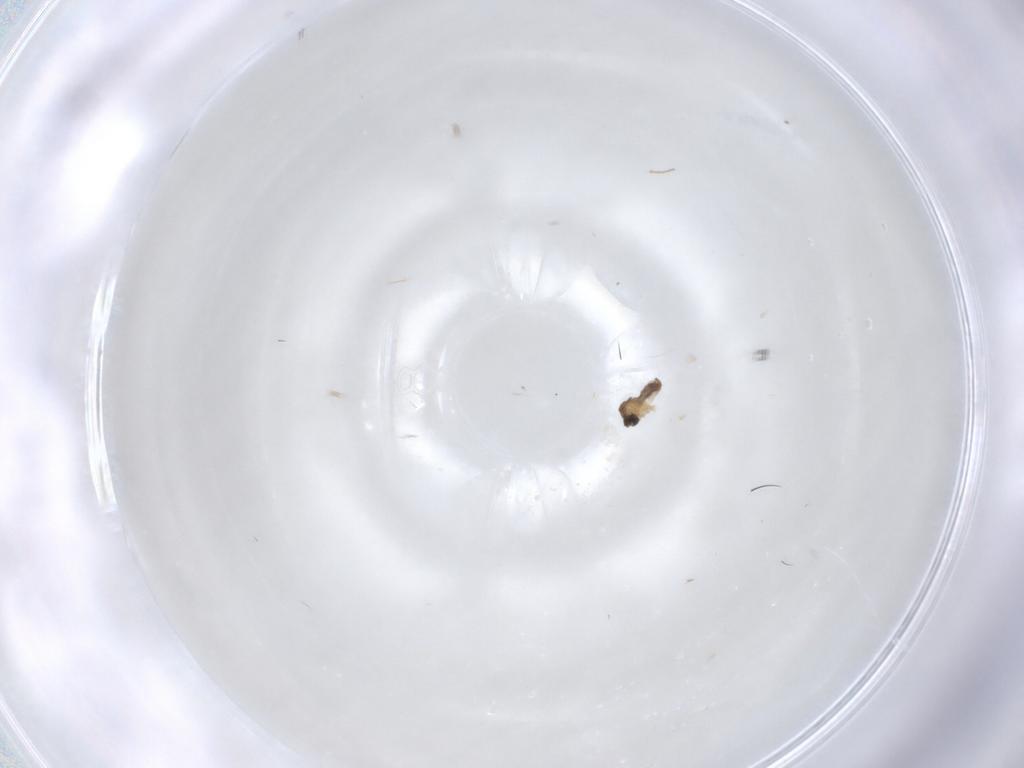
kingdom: Animalia
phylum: Arthropoda
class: Insecta
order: Diptera
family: Cecidomyiidae
